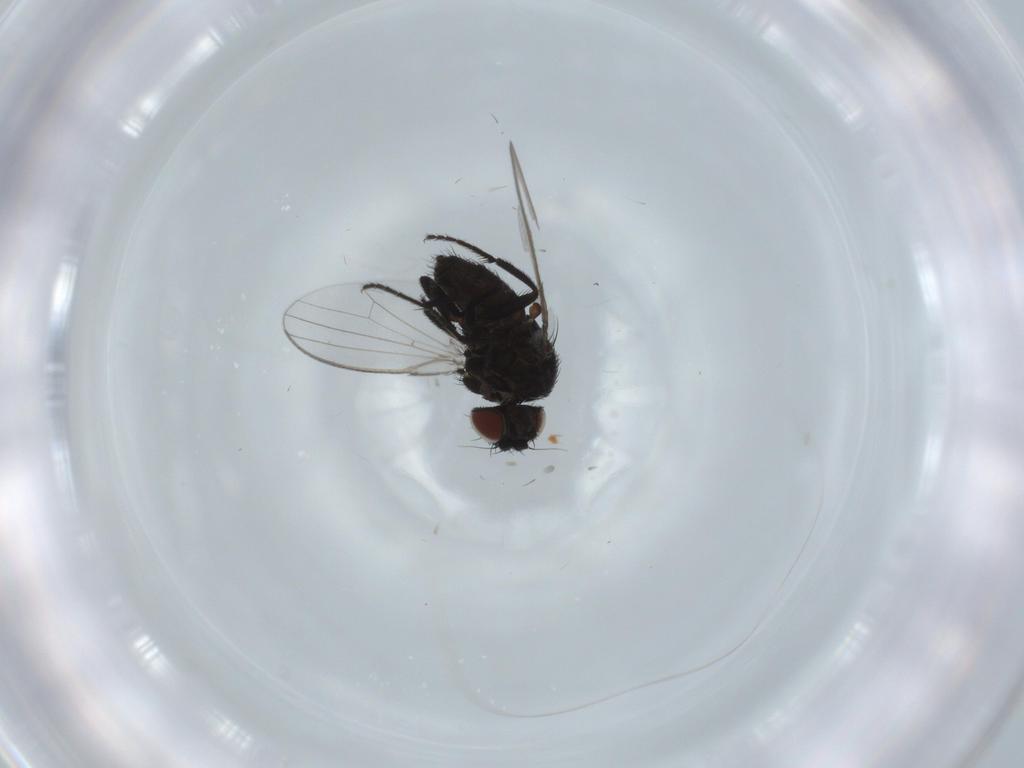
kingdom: Animalia
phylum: Arthropoda
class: Insecta
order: Diptera
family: Milichiidae
